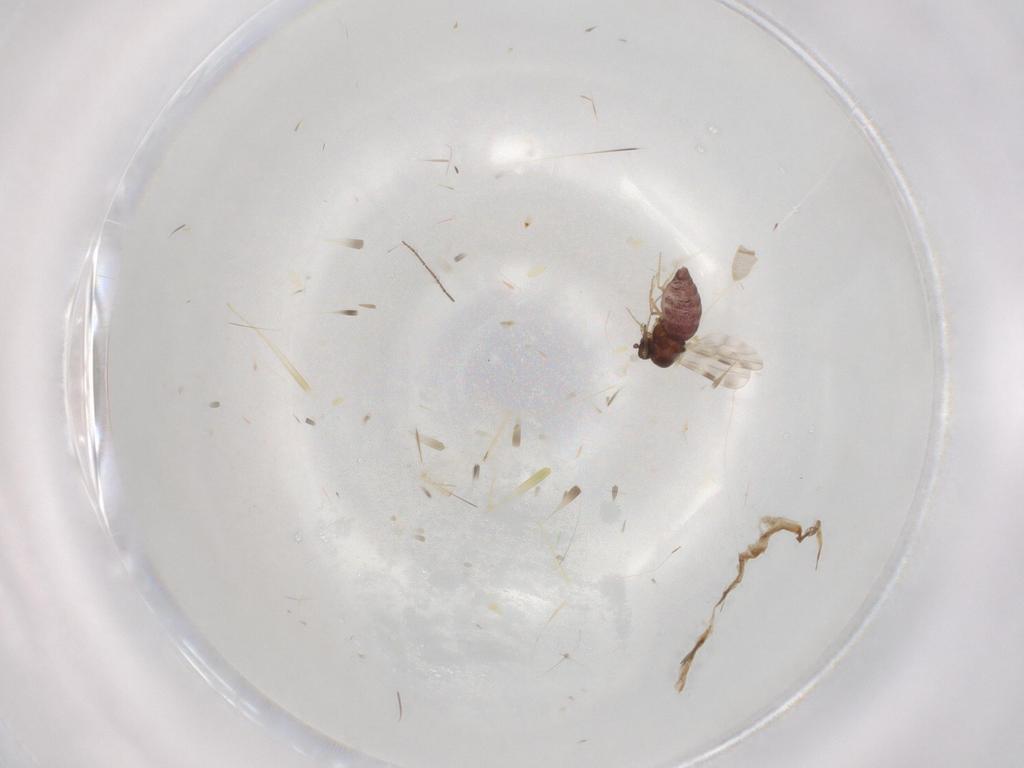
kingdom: Animalia
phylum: Arthropoda
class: Insecta
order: Diptera
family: Culicidae
